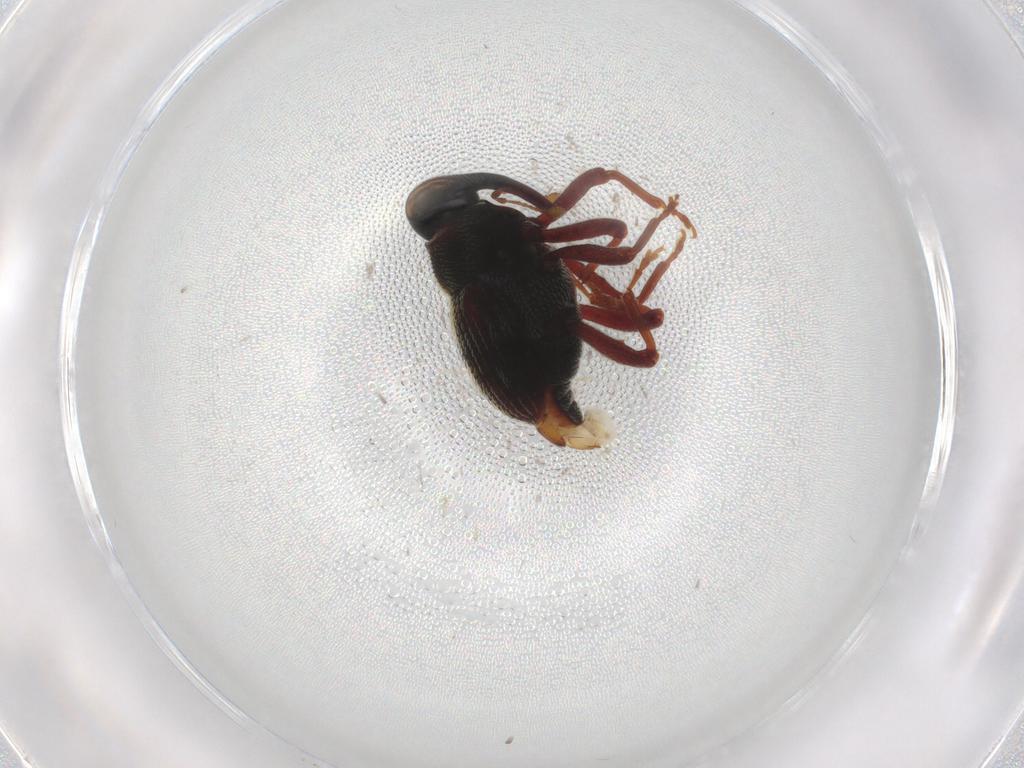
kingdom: Animalia
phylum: Arthropoda
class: Insecta
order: Coleoptera
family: Curculionidae
